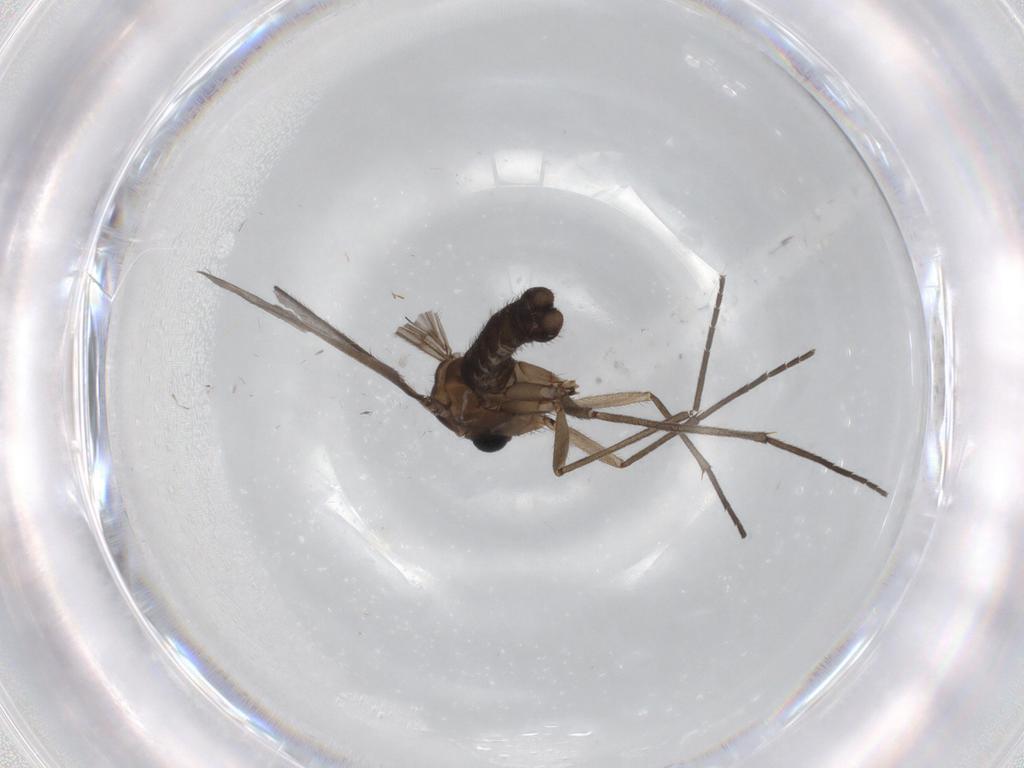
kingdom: Animalia
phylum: Arthropoda
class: Insecta
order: Diptera
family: Sciaridae
